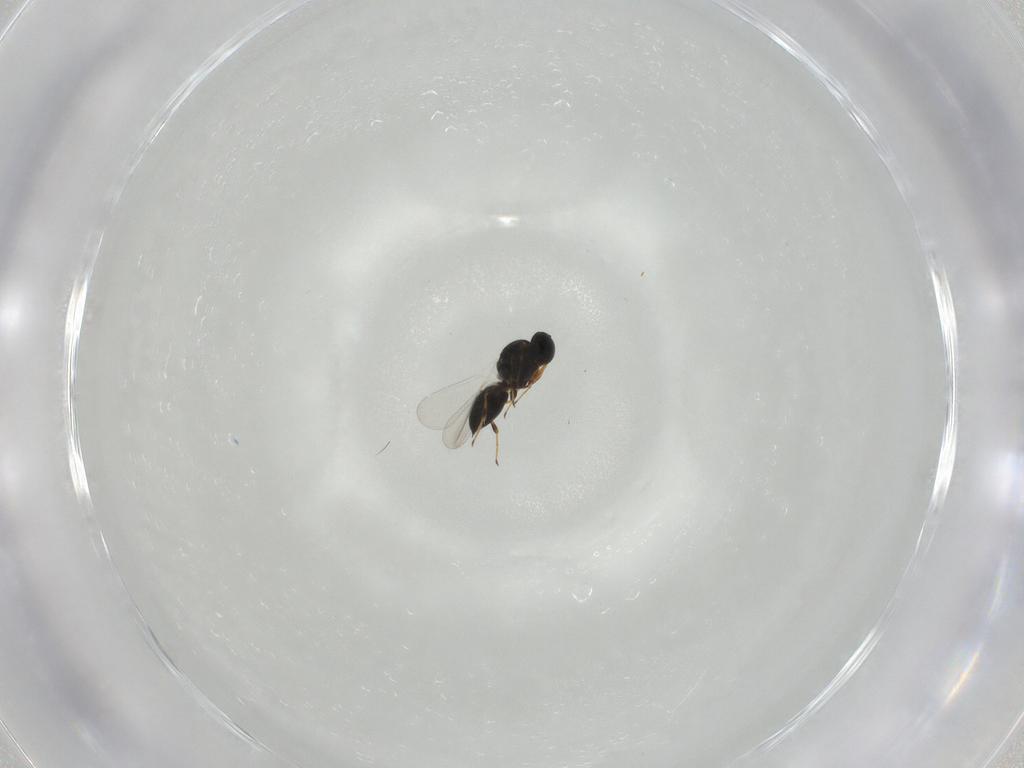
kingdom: Animalia
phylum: Arthropoda
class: Insecta
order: Hymenoptera
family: Platygastridae
